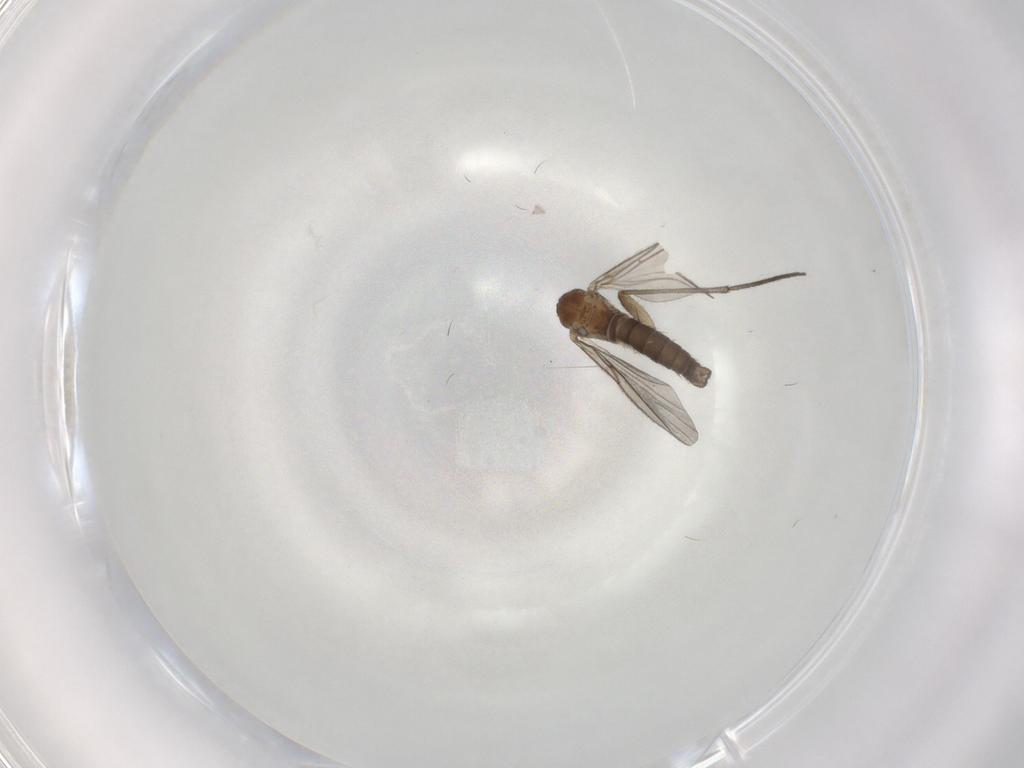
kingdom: Animalia
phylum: Arthropoda
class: Insecta
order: Diptera
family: Sciaridae
